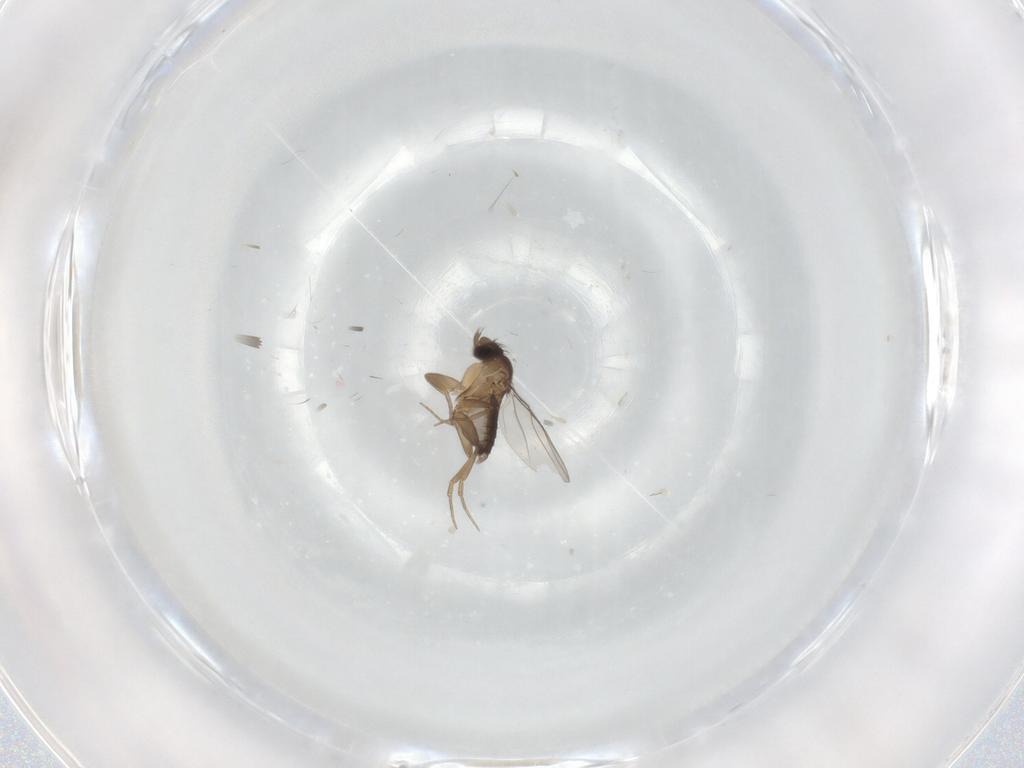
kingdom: Animalia
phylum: Arthropoda
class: Insecta
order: Diptera
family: Phoridae
